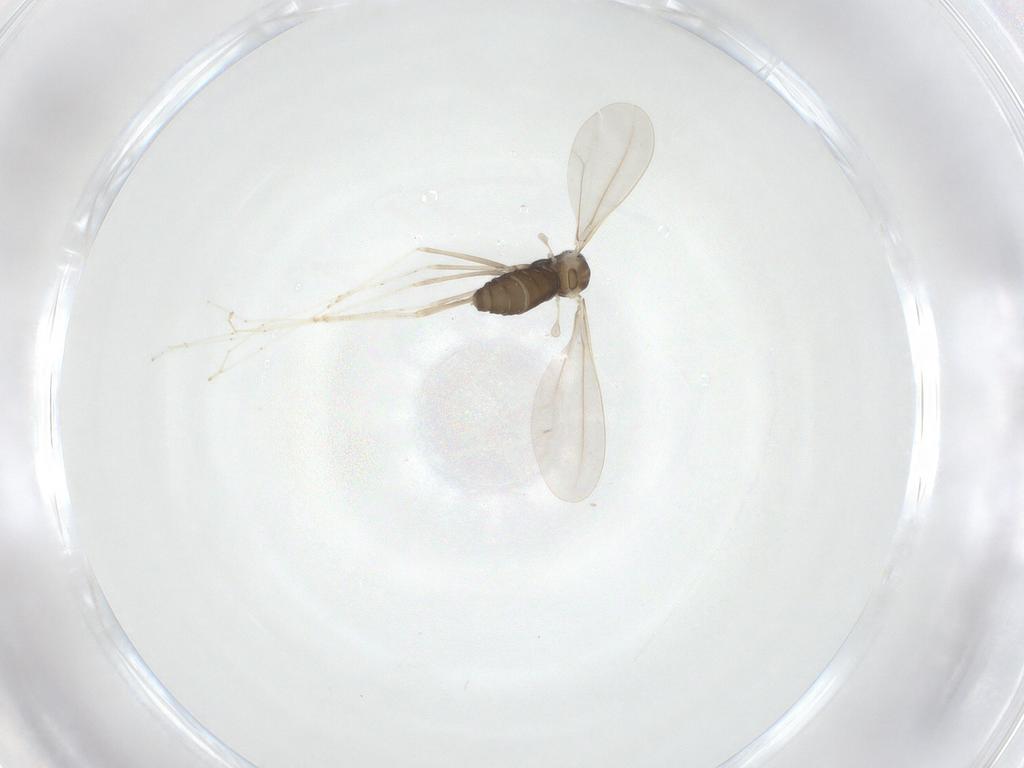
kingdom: Animalia
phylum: Arthropoda
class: Insecta
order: Diptera
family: Cecidomyiidae
